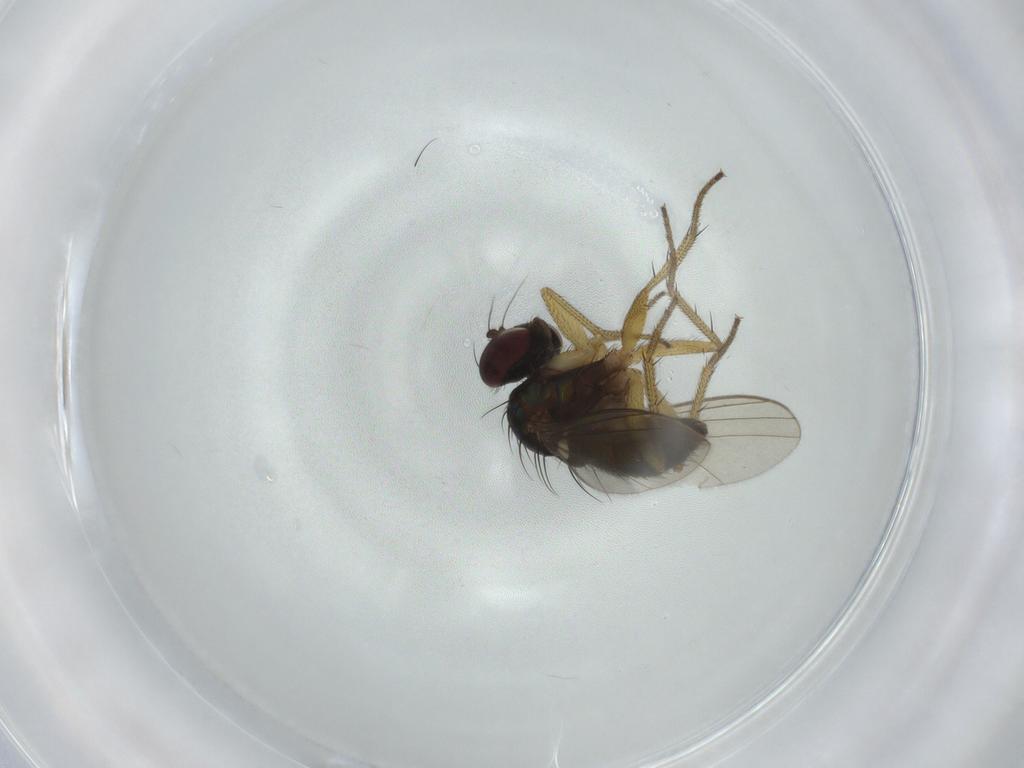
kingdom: Animalia
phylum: Arthropoda
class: Insecta
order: Diptera
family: Dolichopodidae
